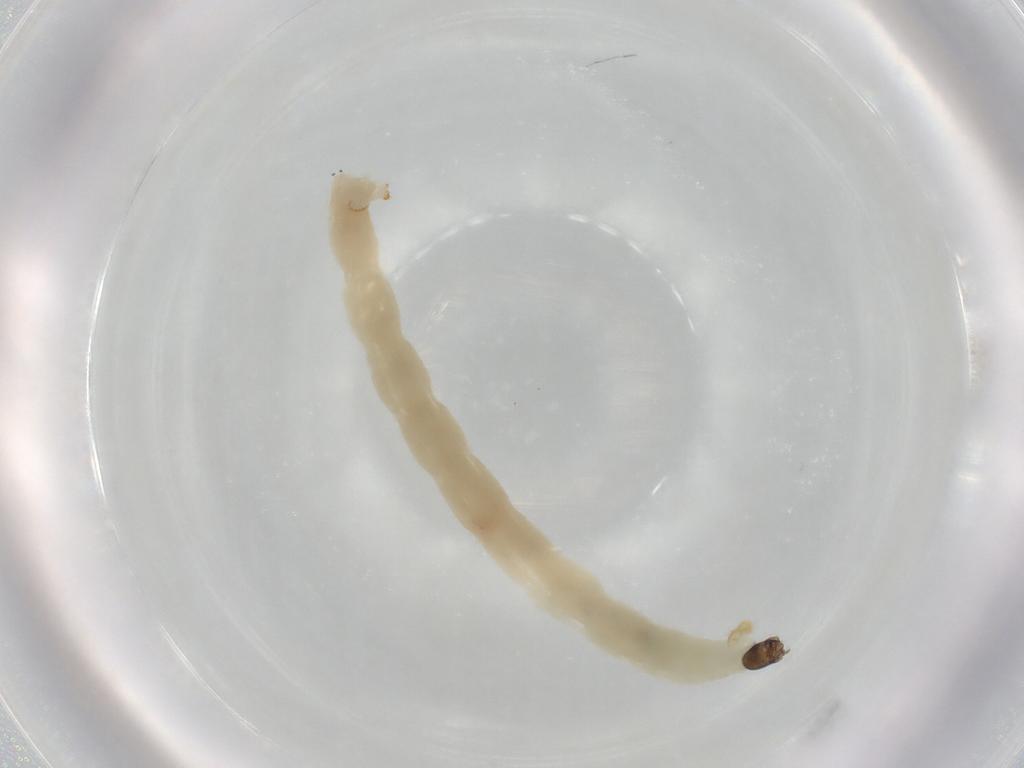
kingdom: Animalia
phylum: Arthropoda
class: Insecta
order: Diptera
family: Chironomidae
